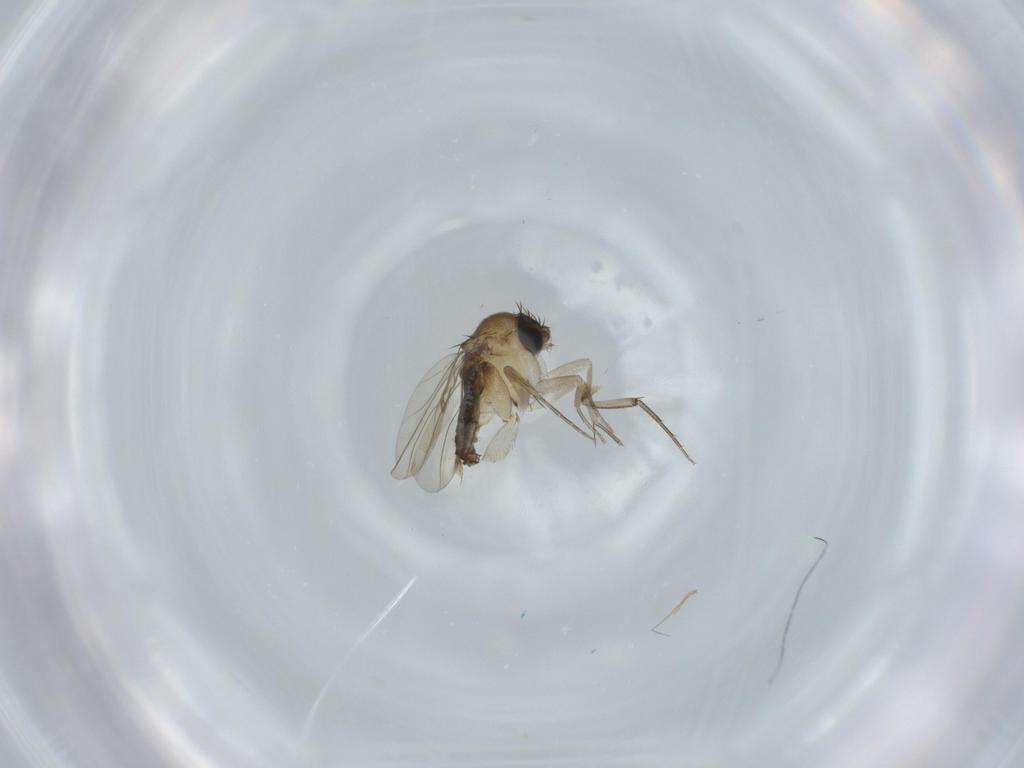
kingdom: Animalia
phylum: Arthropoda
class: Insecta
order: Diptera
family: Phoridae
